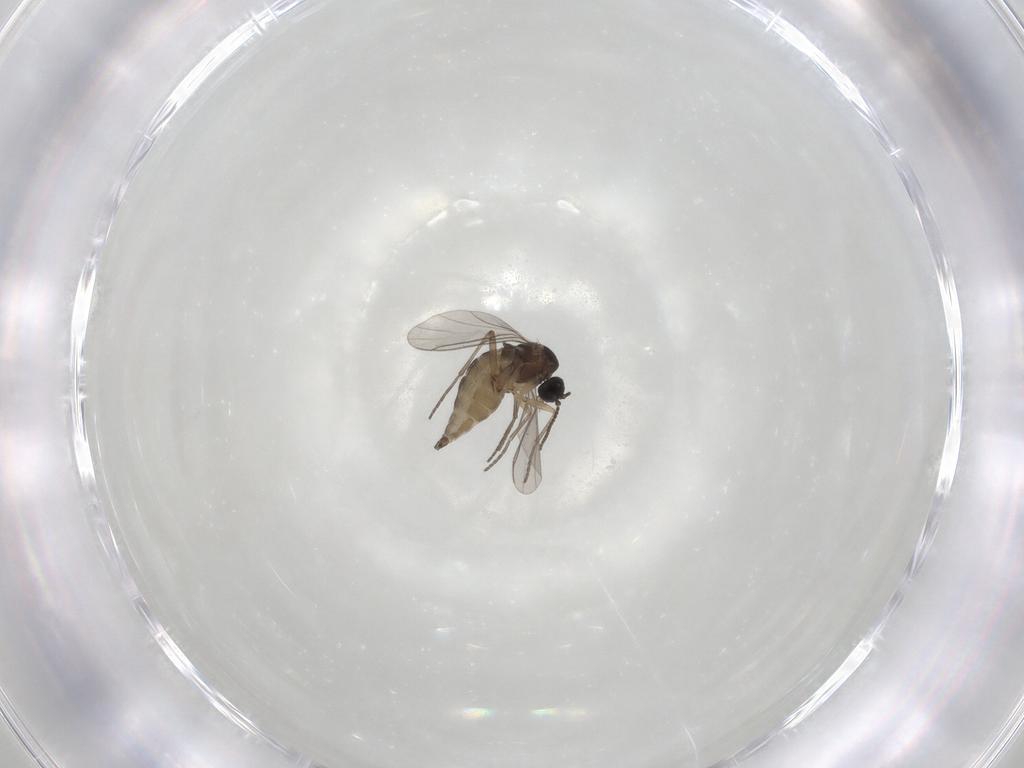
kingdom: Animalia
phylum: Arthropoda
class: Insecta
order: Diptera
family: Sciaridae
